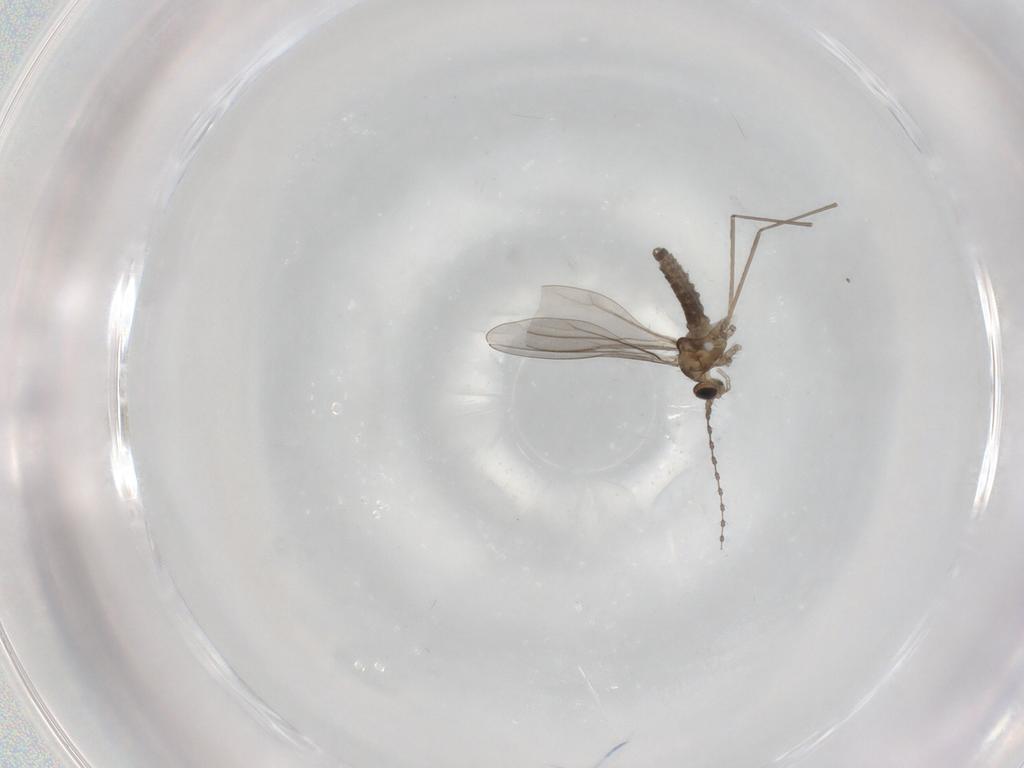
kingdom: Animalia
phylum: Arthropoda
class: Insecta
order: Diptera
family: Cecidomyiidae
